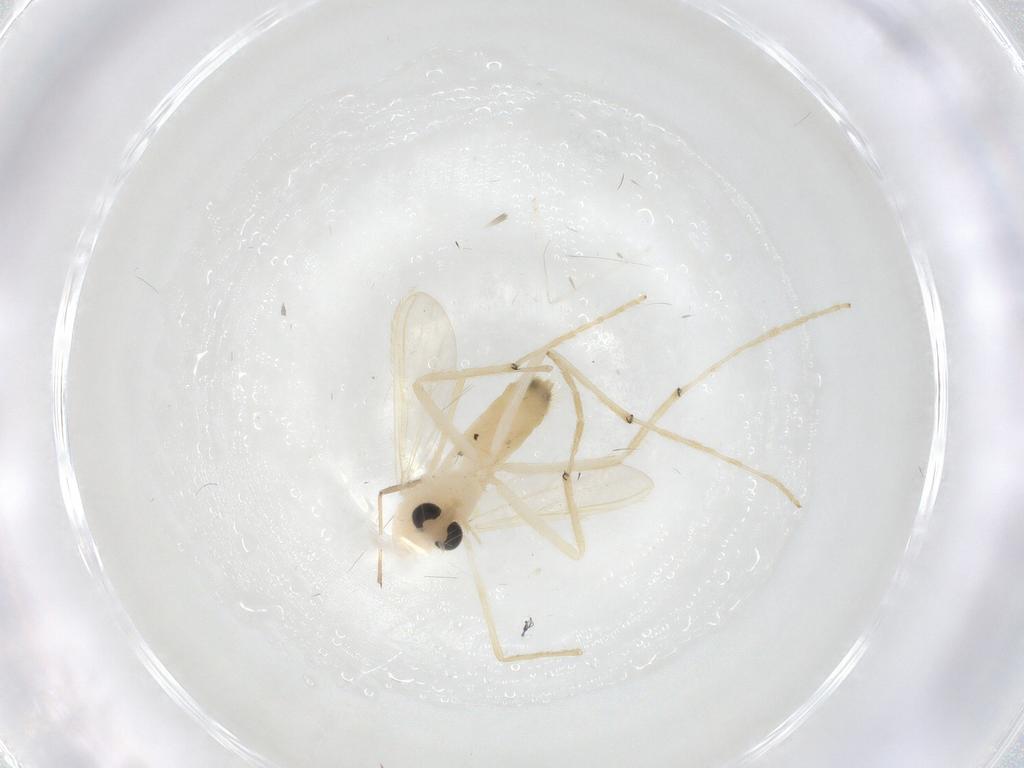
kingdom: Animalia
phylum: Arthropoda
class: Insecta
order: Diptera
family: Chironomidae
